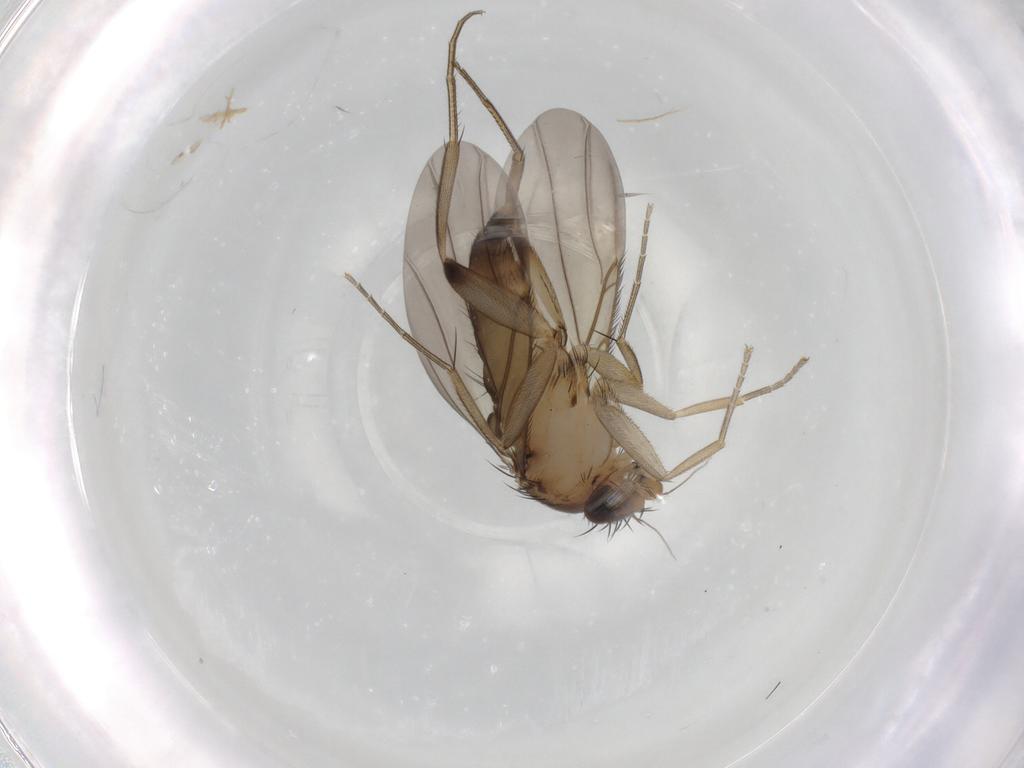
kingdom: Animalia
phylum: Arthropoda
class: Insecta
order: Diptera
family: Phoridae
